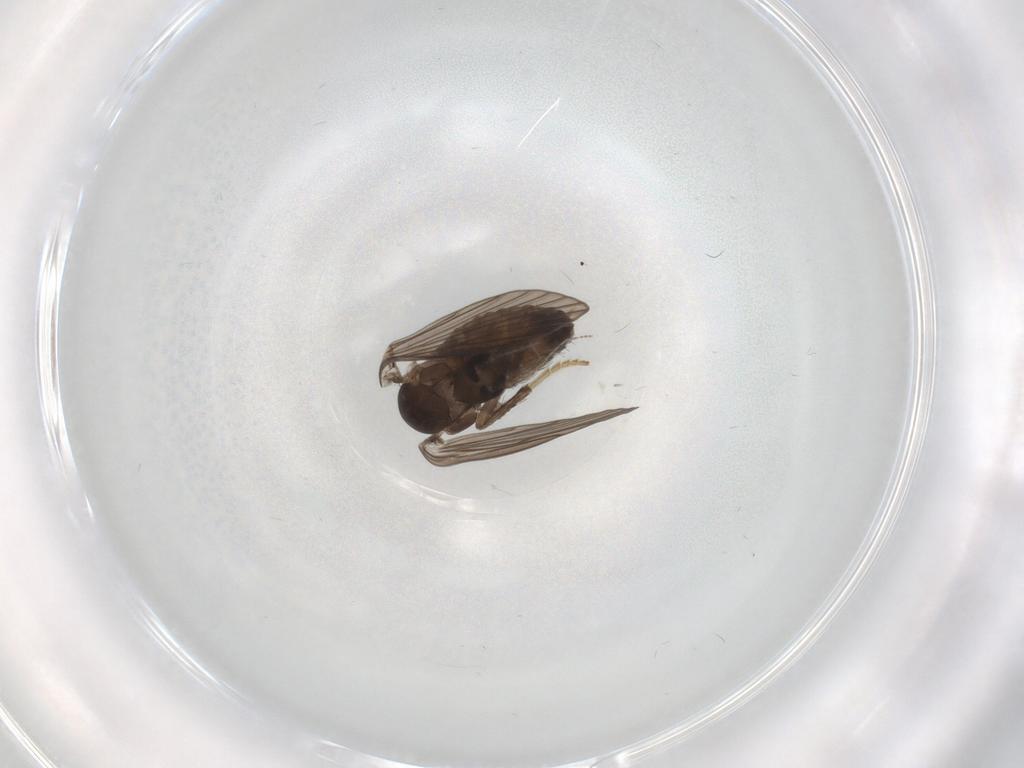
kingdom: Animalia
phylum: Arthropoda
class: Insecta
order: Diptera
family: Psychodidae
